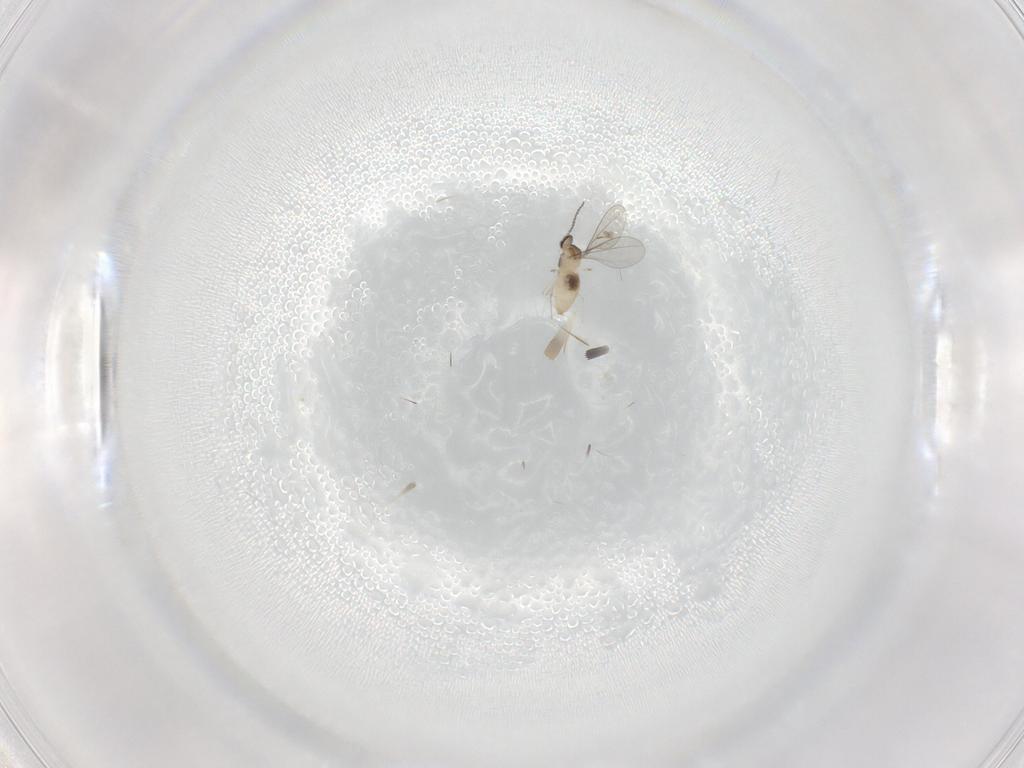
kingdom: Animalia
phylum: Arthropoda
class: Insecta
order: Diptera
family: Cecidomyiidae
